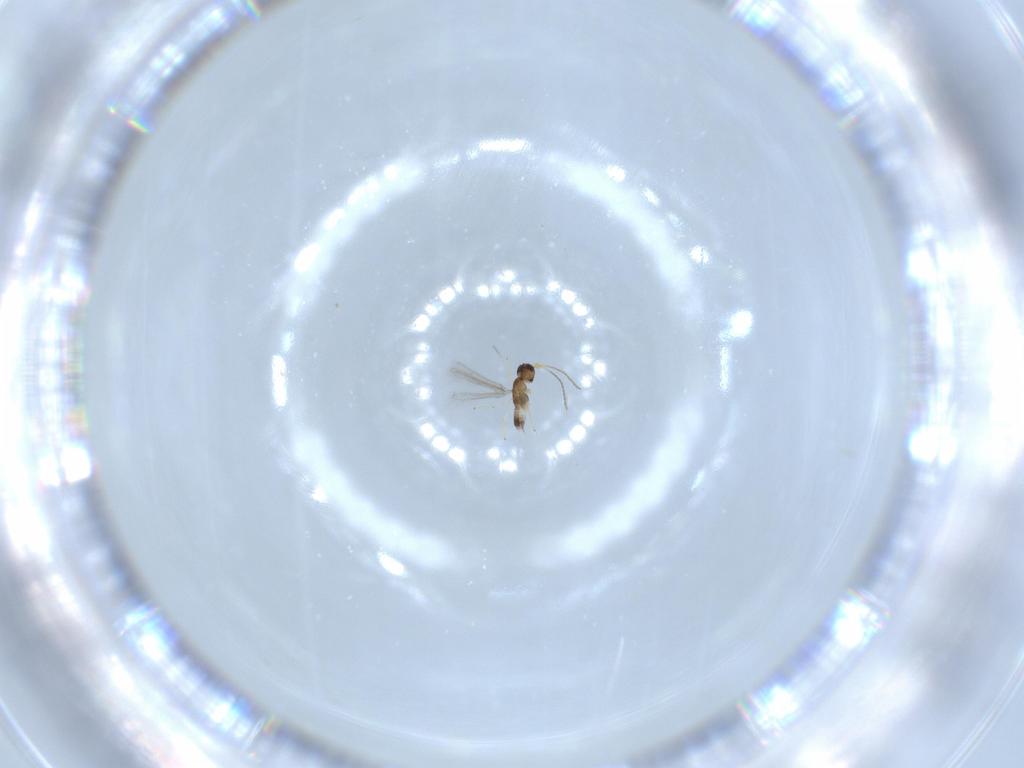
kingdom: Animalia
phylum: Arthropoda
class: Insecta
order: Hymenoptera
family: Mymaridae
